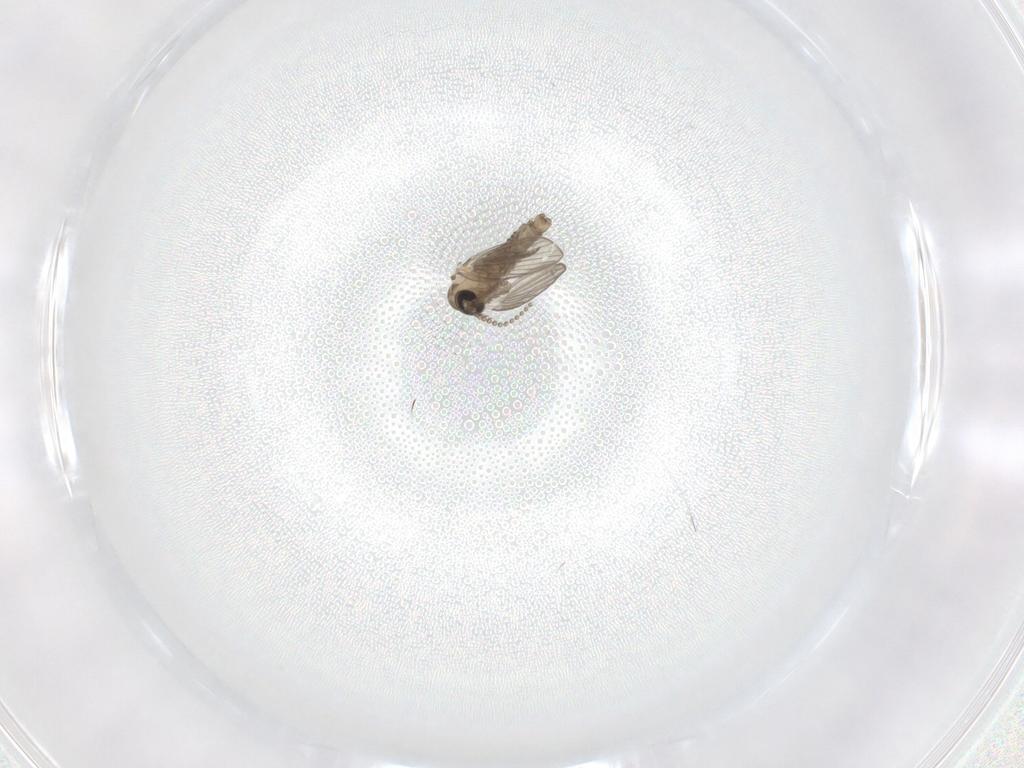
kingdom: Animalia
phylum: Arthropoda
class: Insecta
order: Diptera
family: Psychodidae
